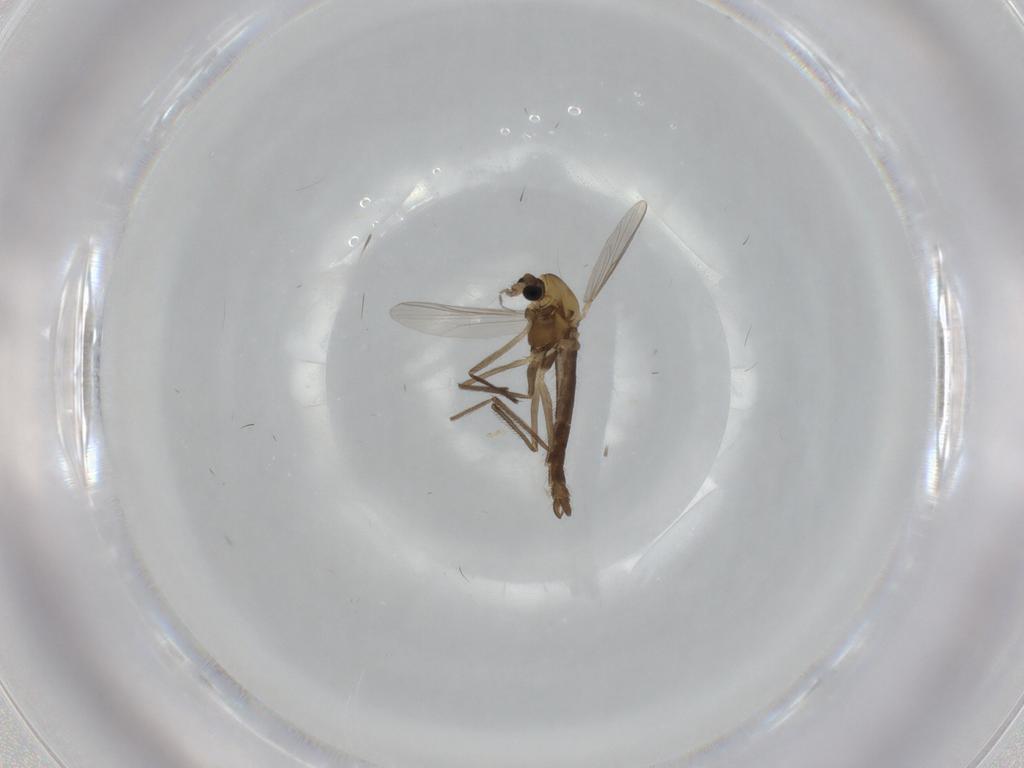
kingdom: Animalia
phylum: Arthropoda
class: Insecta
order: Diptera
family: Chironomidae
